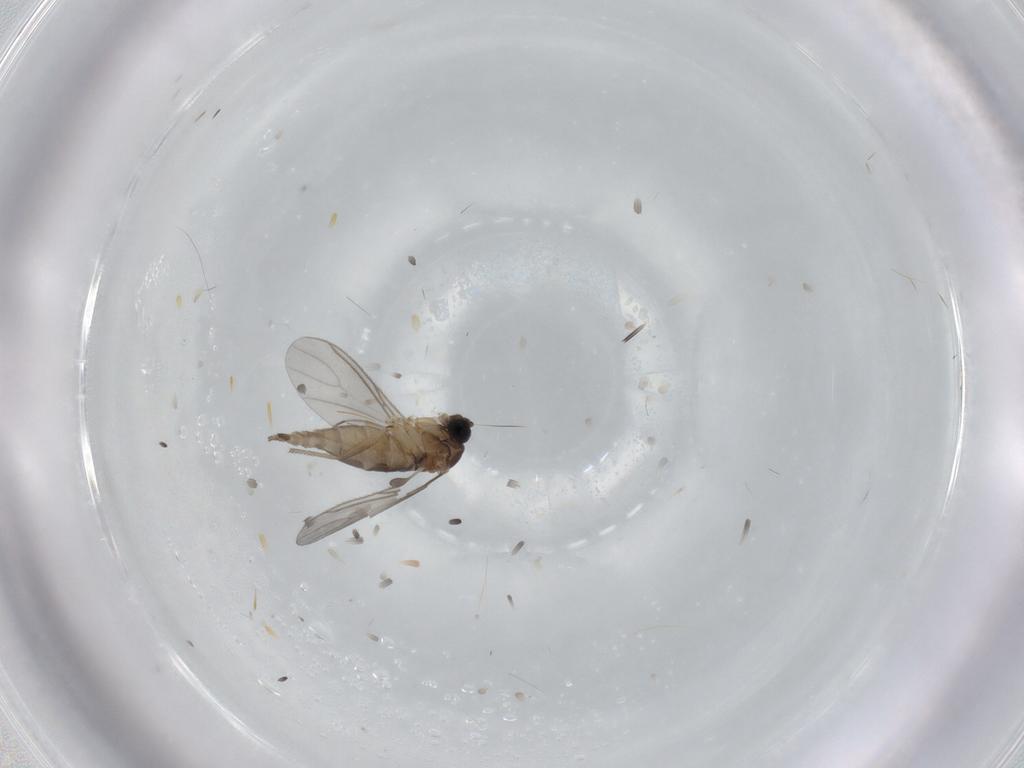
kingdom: Animalia
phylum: Arthropoda
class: Insecta
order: Diptera
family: Sciaridae
